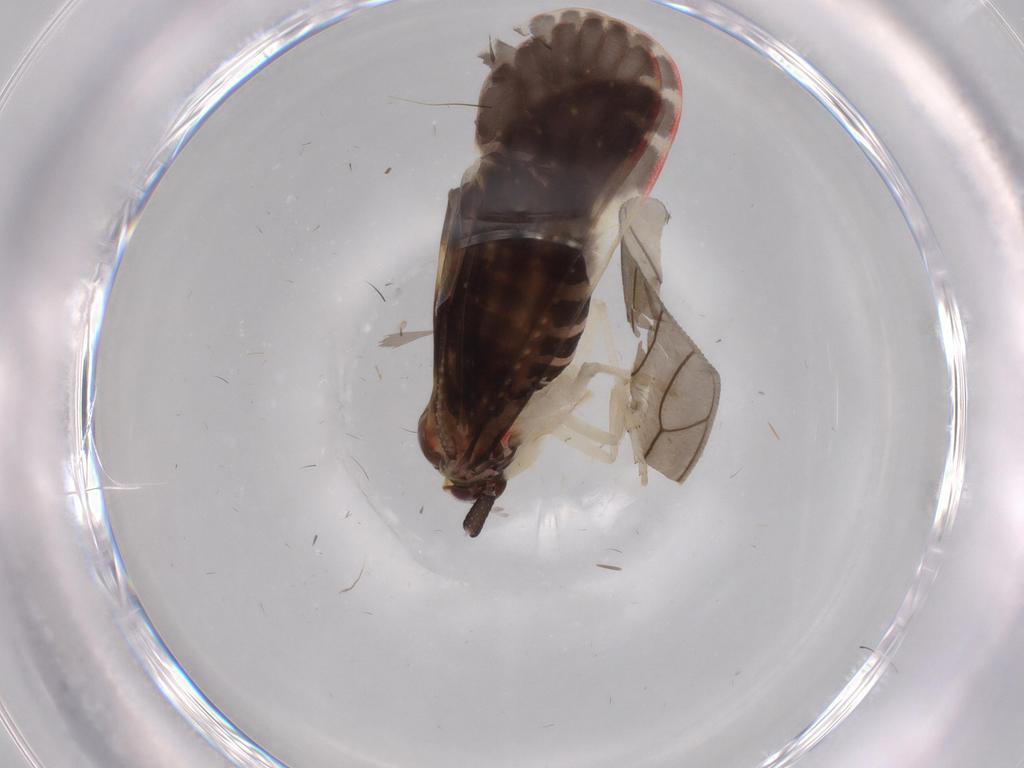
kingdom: Animalia
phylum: Arthropoda
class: Insecta
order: Hemiptera
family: Derbidae
